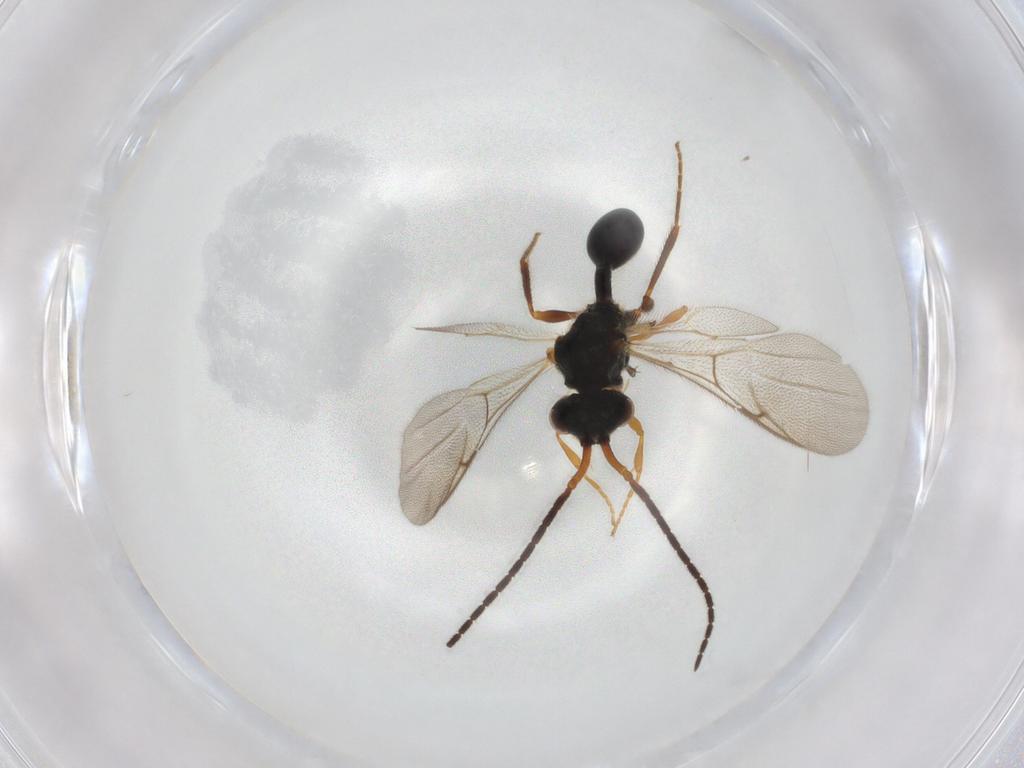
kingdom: Animalia
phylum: Arthropoda
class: Insecta
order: Hymenoptera
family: Diapriidae
